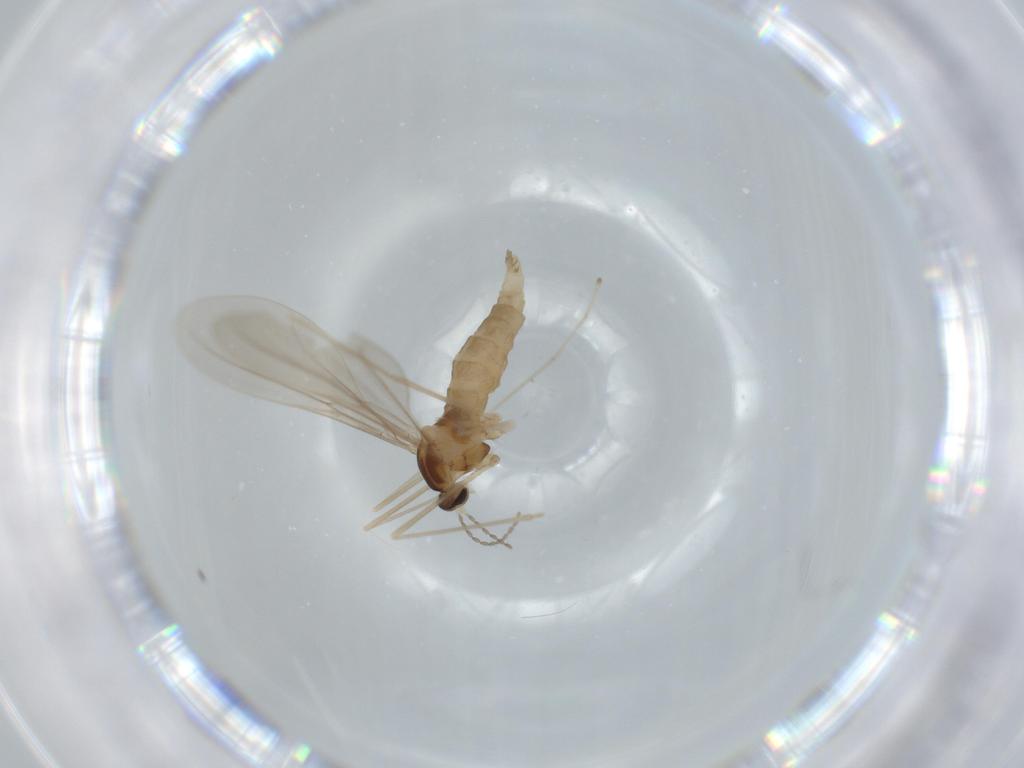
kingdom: Animalia
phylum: Arthropoda
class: Insecta
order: Diptera
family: Cecidomyiidae
